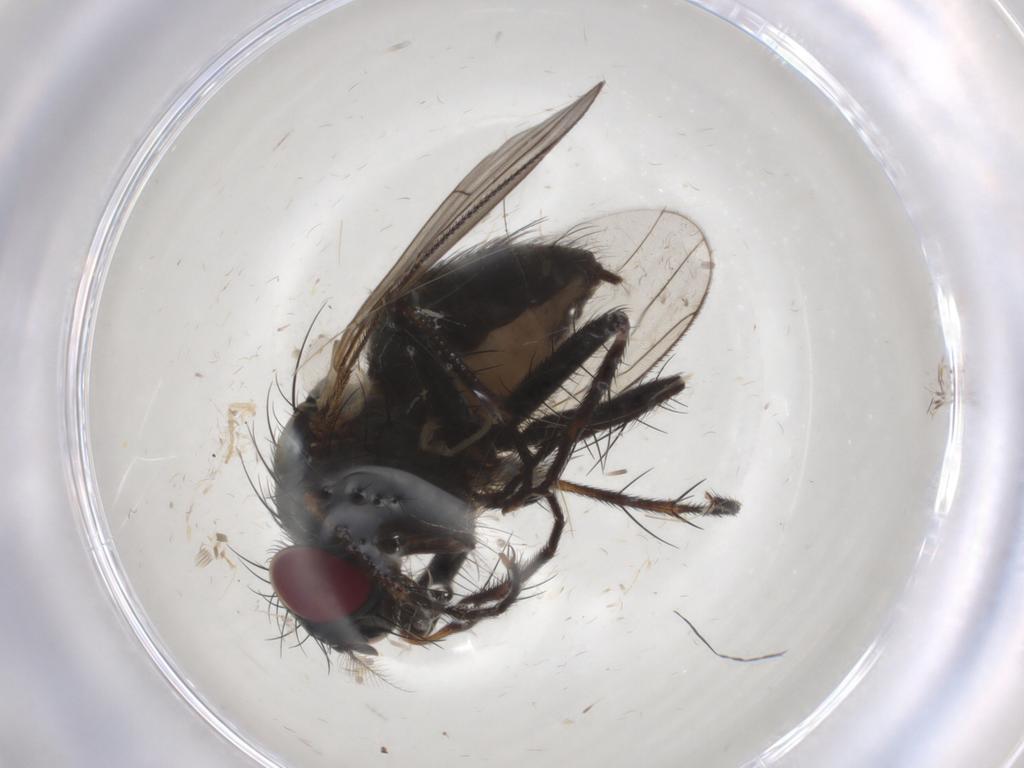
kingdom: Animalia
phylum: Arthropoda
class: Insecta
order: Diptera
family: Muscidae
